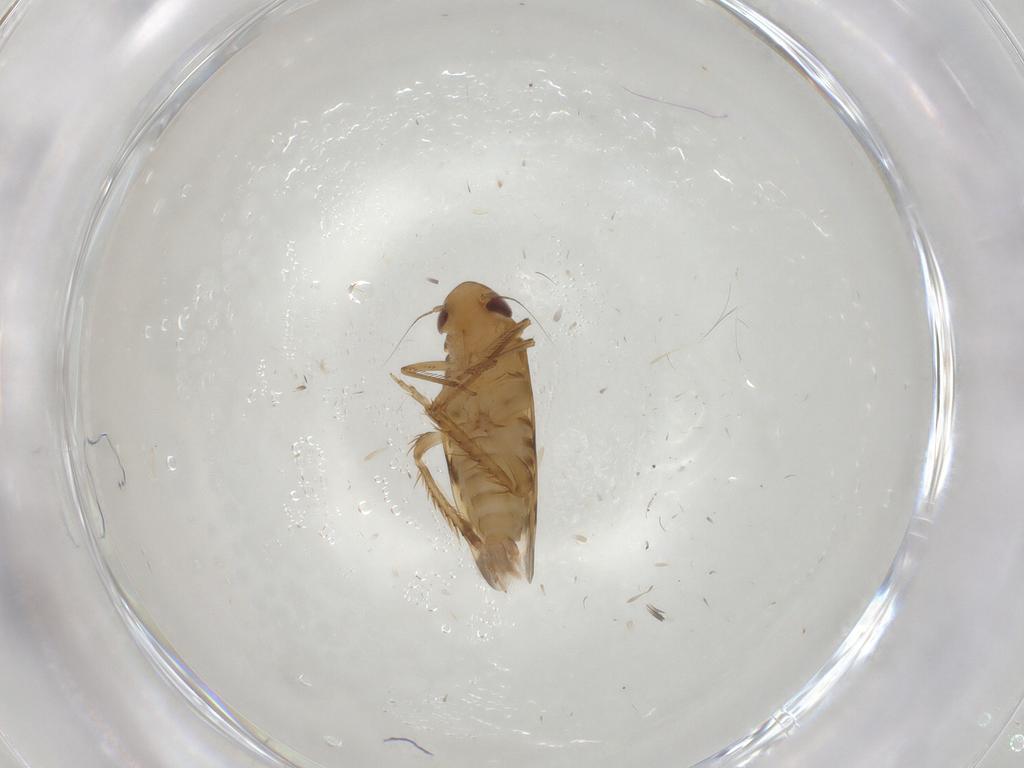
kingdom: Animalia
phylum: Arthropoda
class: Insecta
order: Hemiptera
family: Cicadellidae
